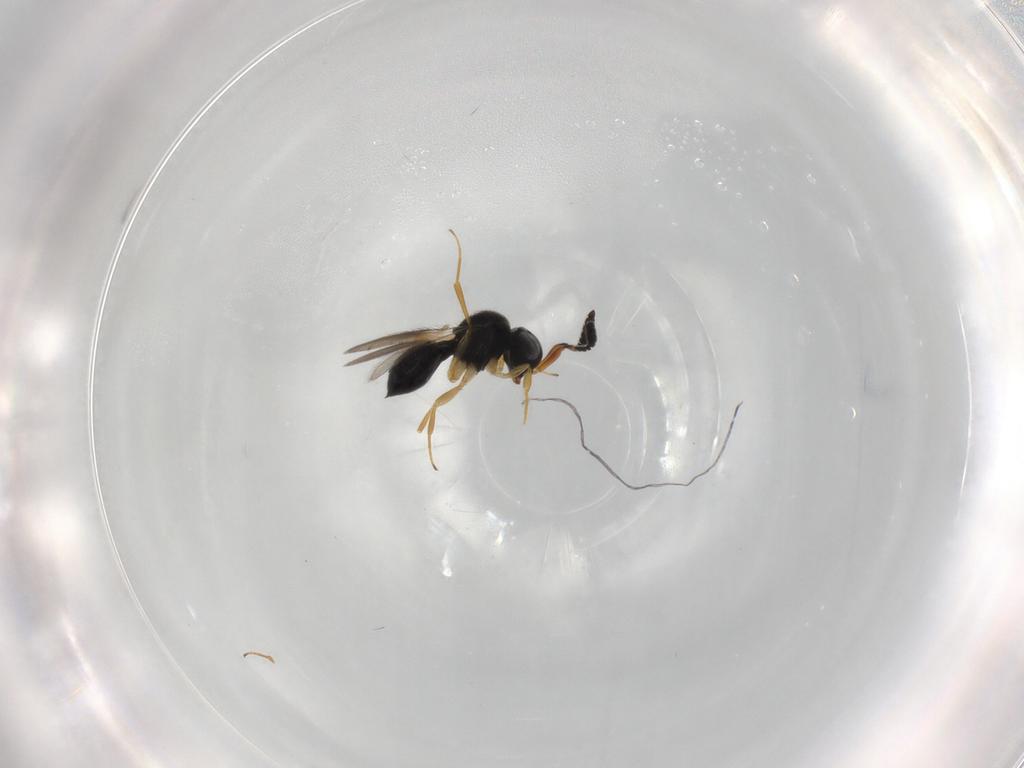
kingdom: Animalia
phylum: Arthropoda
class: Insecta
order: Hymenoptera
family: Scelionidae
